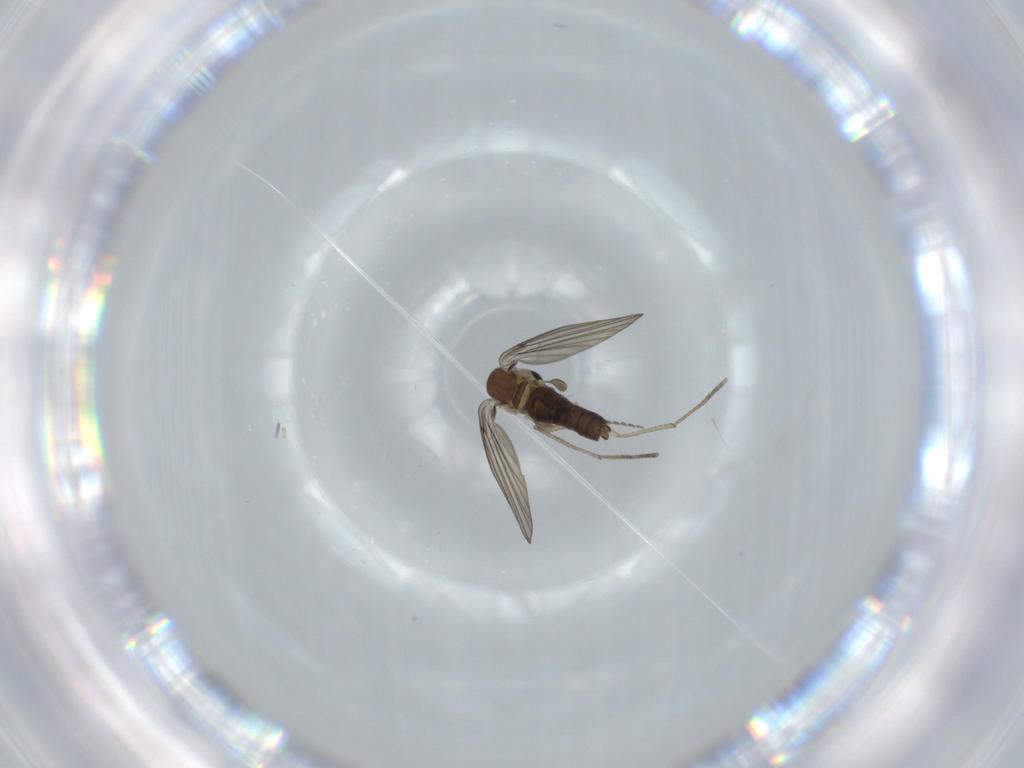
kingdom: Animalia
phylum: Arthropoda
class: Insecta
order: Diptera
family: Psychodidae
